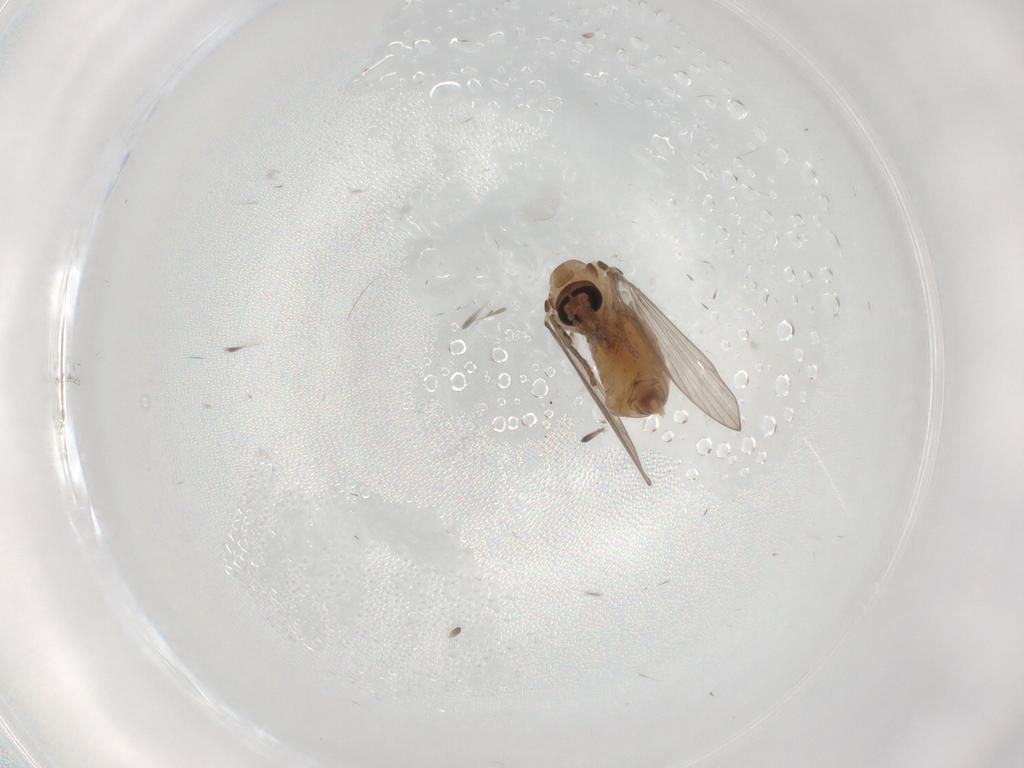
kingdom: Animalia
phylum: Arthropoda
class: Insecta
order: Diptera
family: Psychodidae
